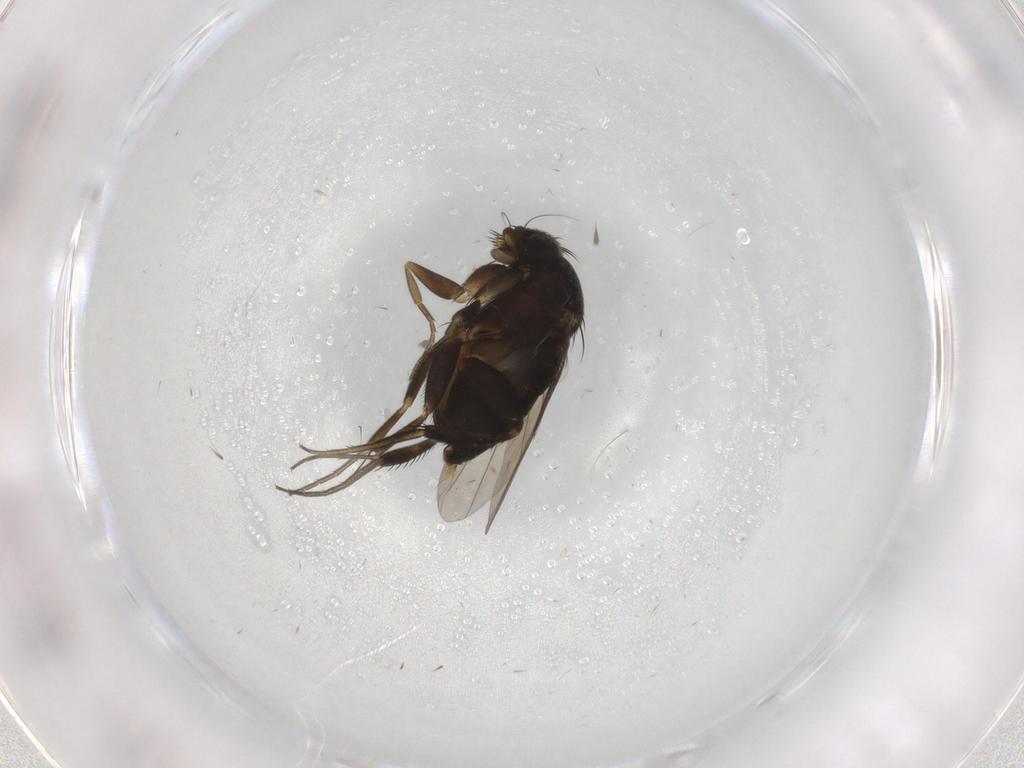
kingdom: Animalia
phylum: Arthropoda
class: Insecta
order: Diptera
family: Phoridae
